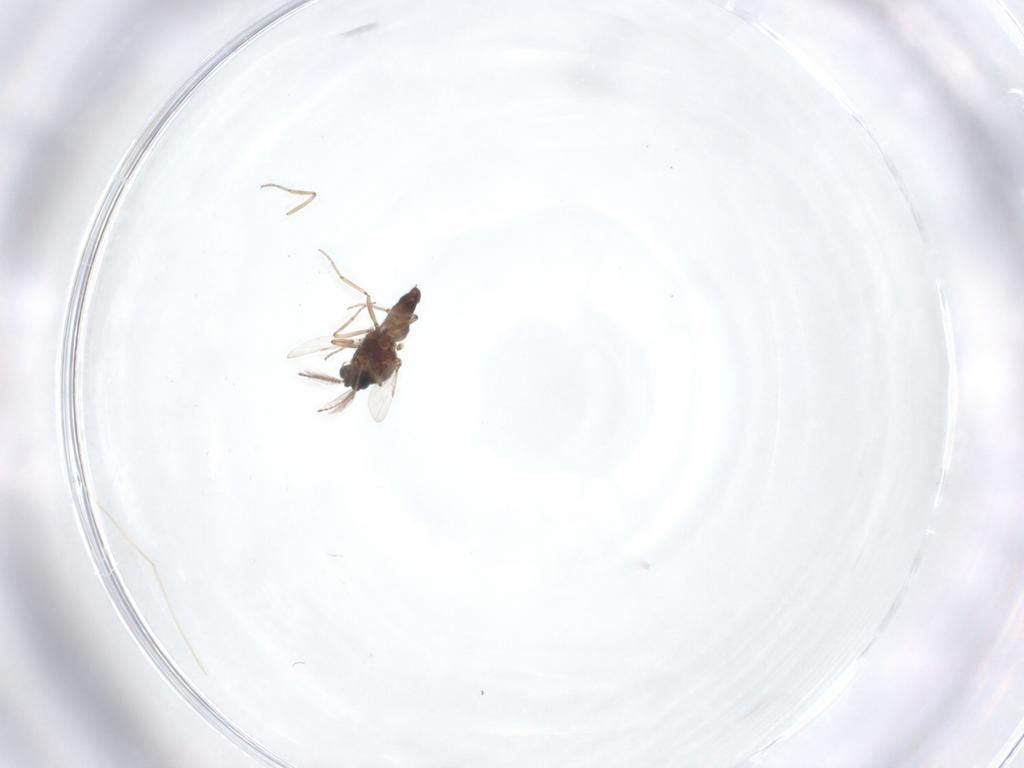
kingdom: Animalia
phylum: Arthropoda
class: Insecta
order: Diptera
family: Ceratopogonidae
